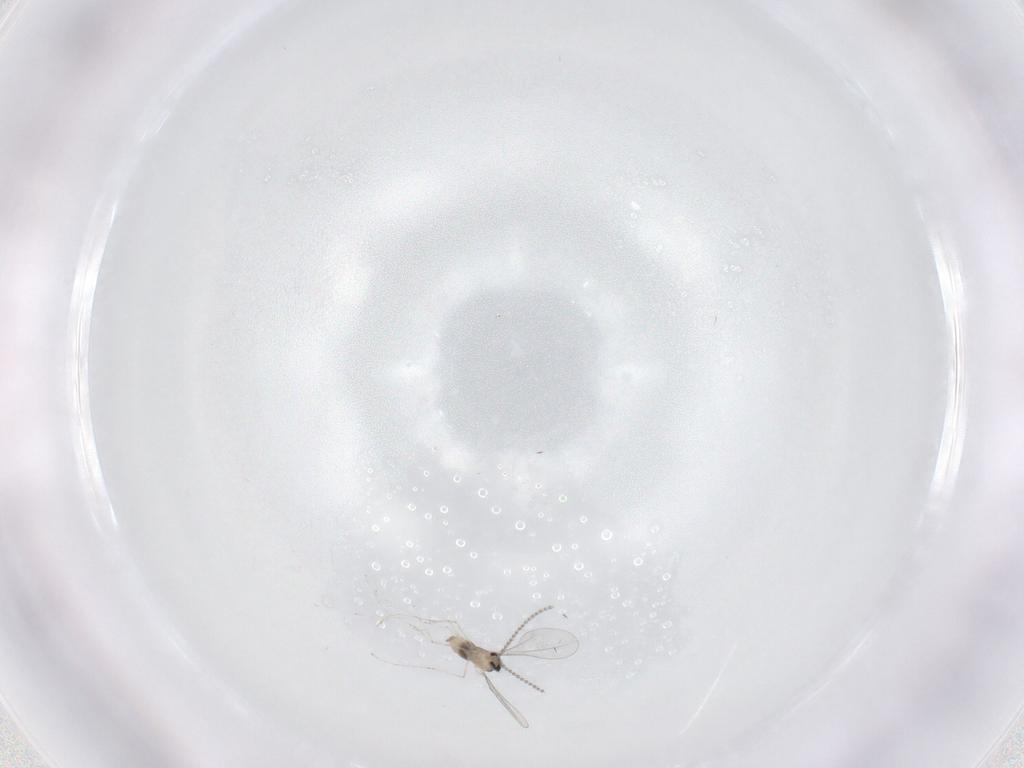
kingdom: Animalia
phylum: Arthropoda
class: Insecta
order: Diptera
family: Cecidomyiidae
